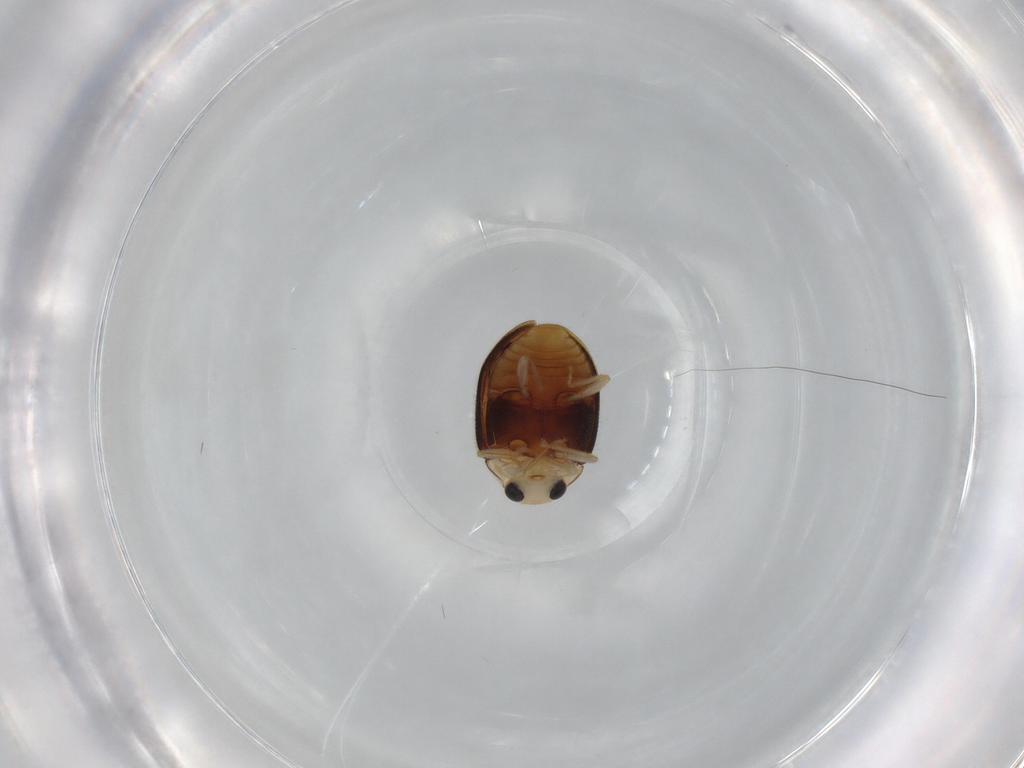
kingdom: Animalia
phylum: Arthropoda
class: Insecta
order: Coleoptera
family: Coccinellidae
